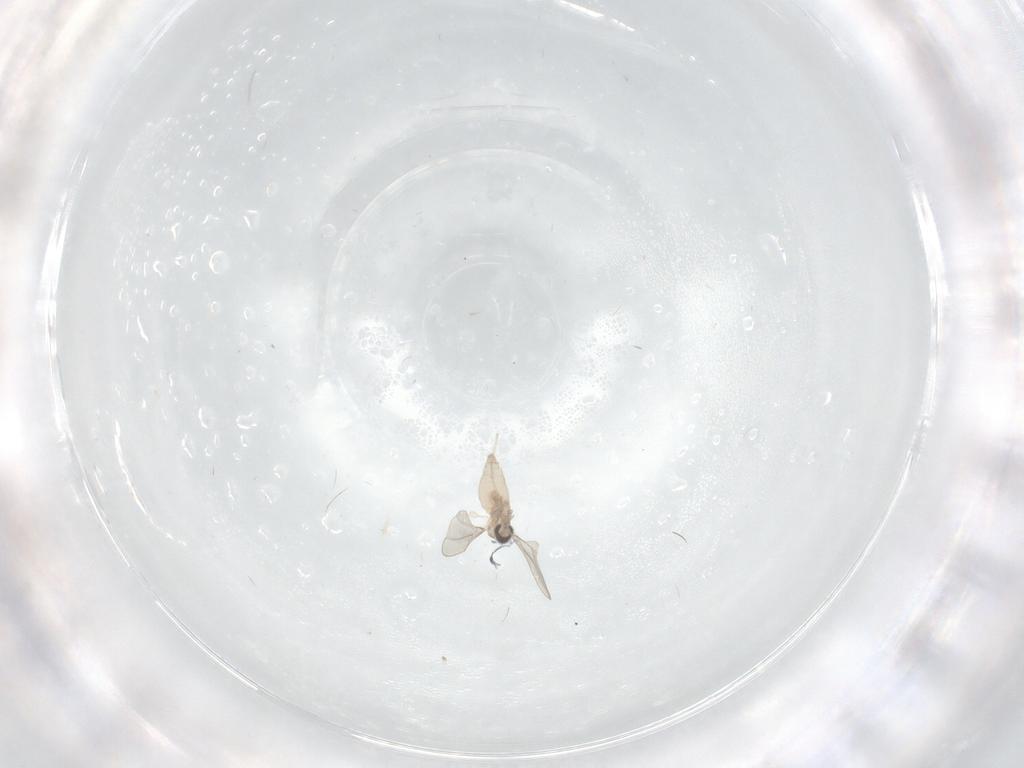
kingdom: Animalia
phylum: Arthropoda
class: Insecta
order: Diptera
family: Cecidomyiidae
